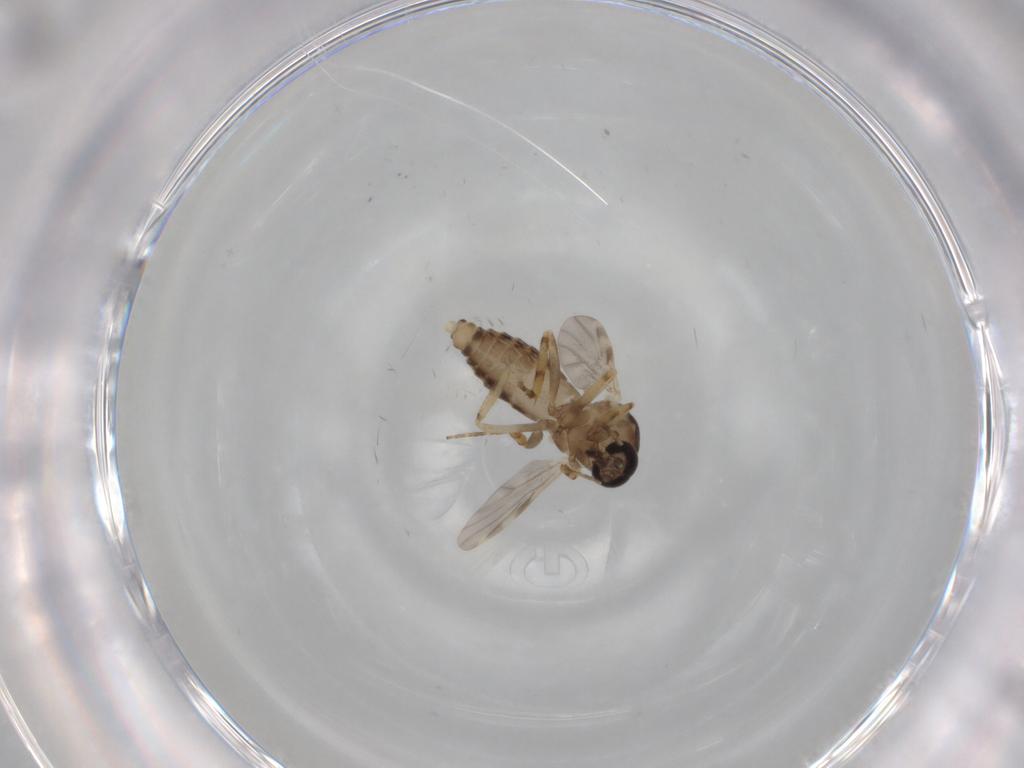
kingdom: Animalia
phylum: Arthropoda
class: Insecta
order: Diptera
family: Ceratopogonidae
